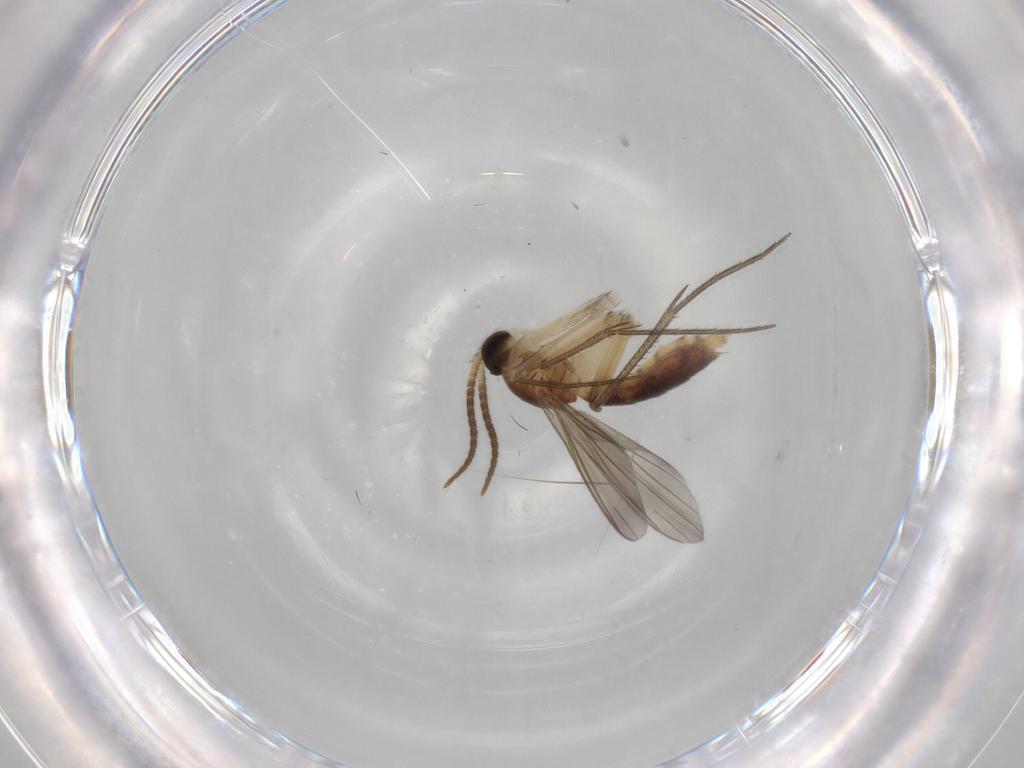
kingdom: Animalia
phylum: Arthropoda
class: Insecta
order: Diptera
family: Mycetophilidae
